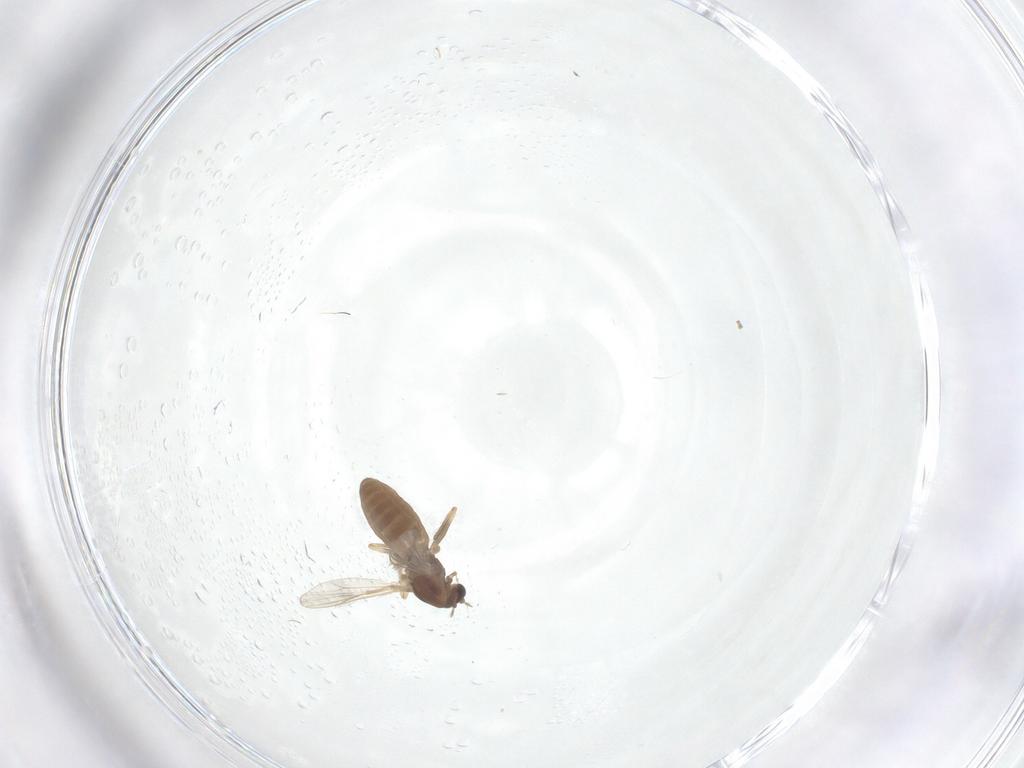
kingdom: Animalia
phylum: Arthropoda
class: Insecta
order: Diptera
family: Chironomidae
